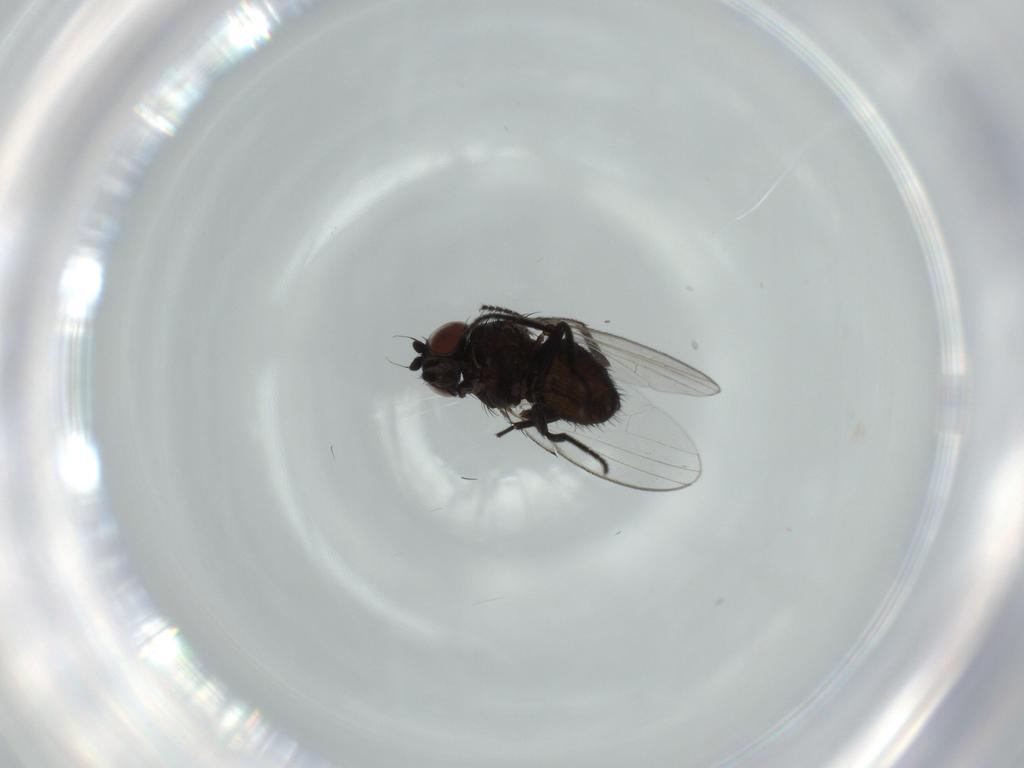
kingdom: Animalia
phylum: Arthropoda
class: Insecta
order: Diptera
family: Milichiidae
